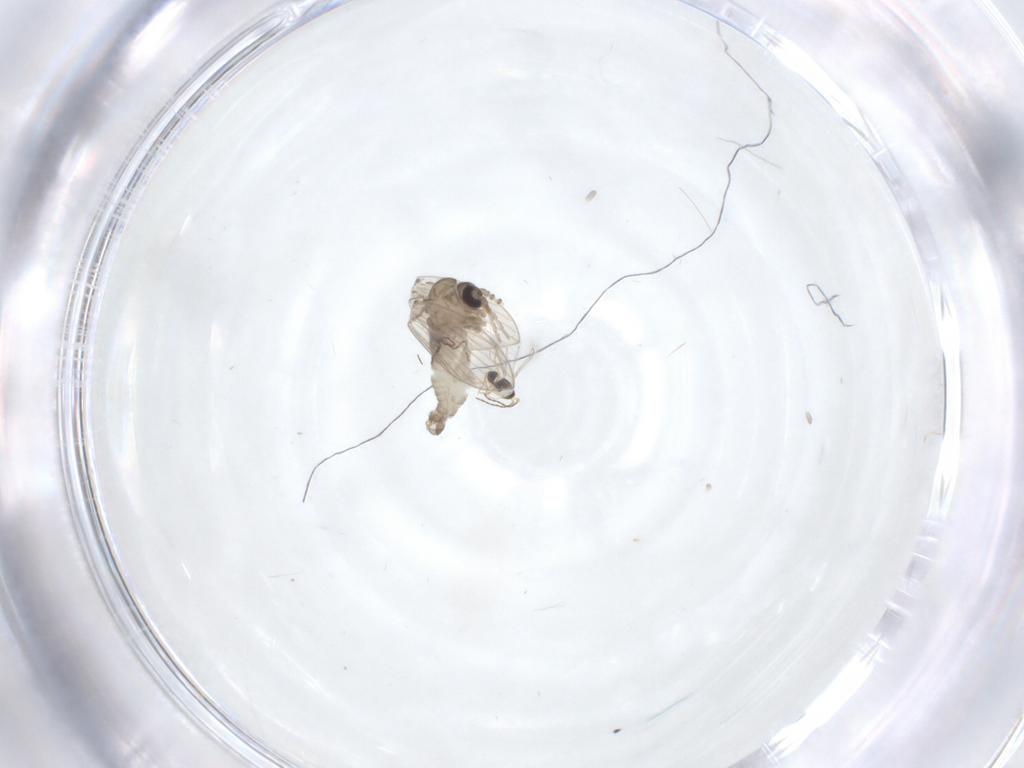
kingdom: Animalia
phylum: Arthropoda
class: Insecta
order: Diptera
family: Psychodidae
